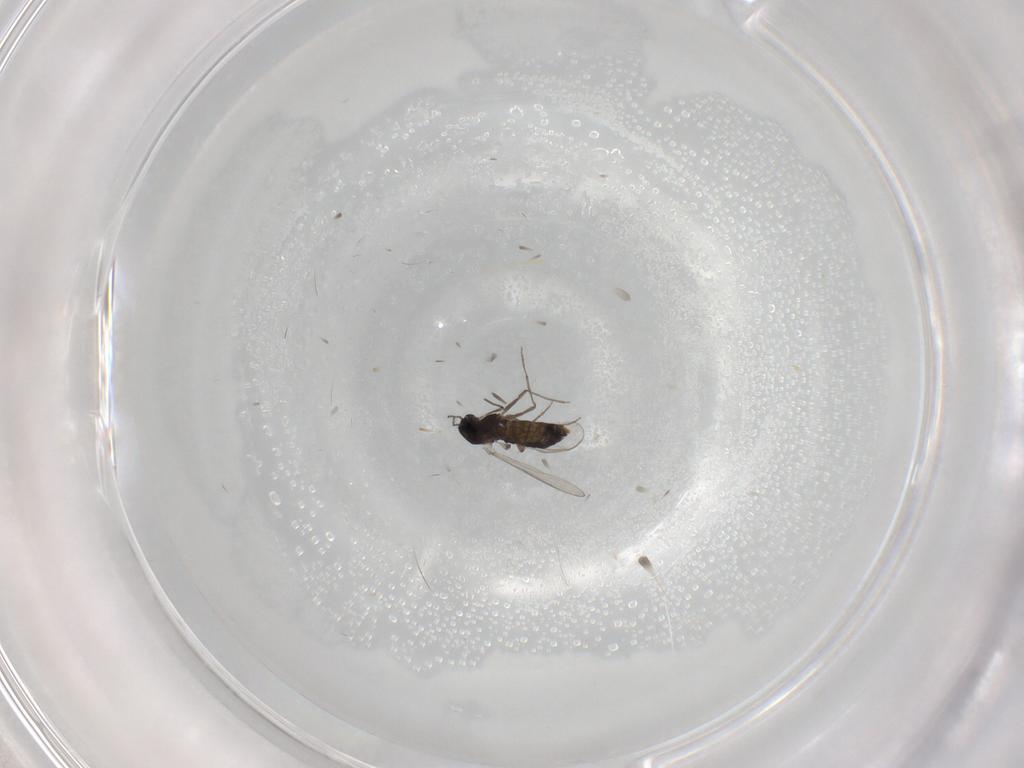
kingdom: Animalia
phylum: Arthropoda
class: Insecta
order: Diptera
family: Chironomidae
